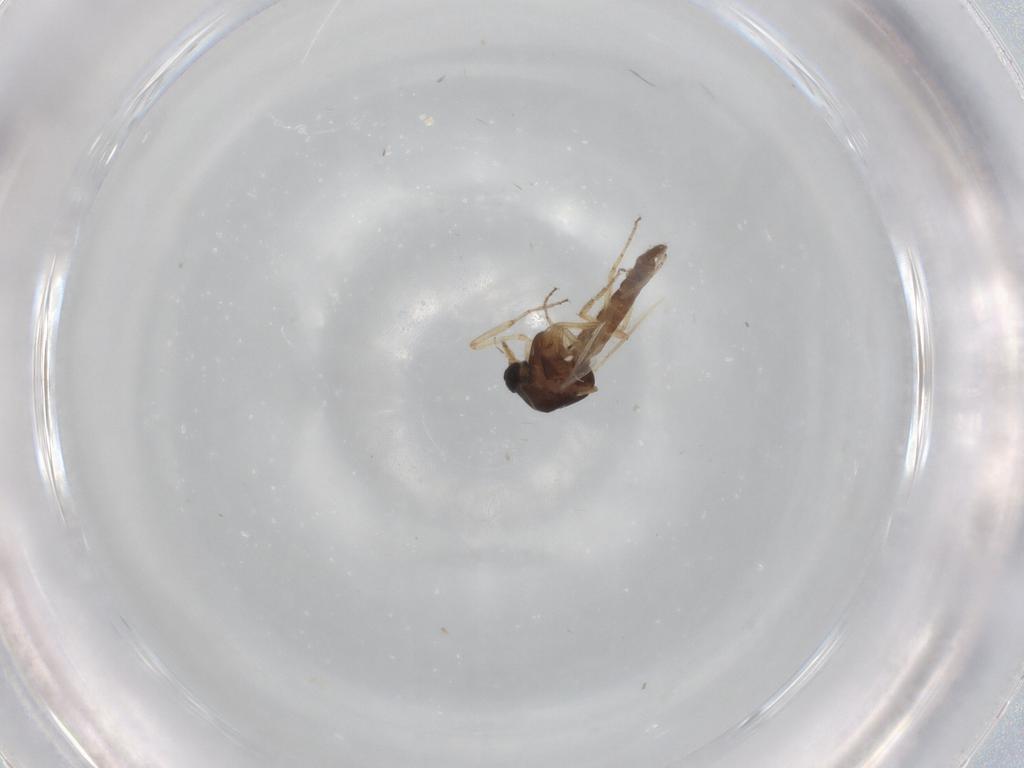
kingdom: Animalia
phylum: Arthropoda
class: Insecta
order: Diptera
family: Ceratopogonidae
